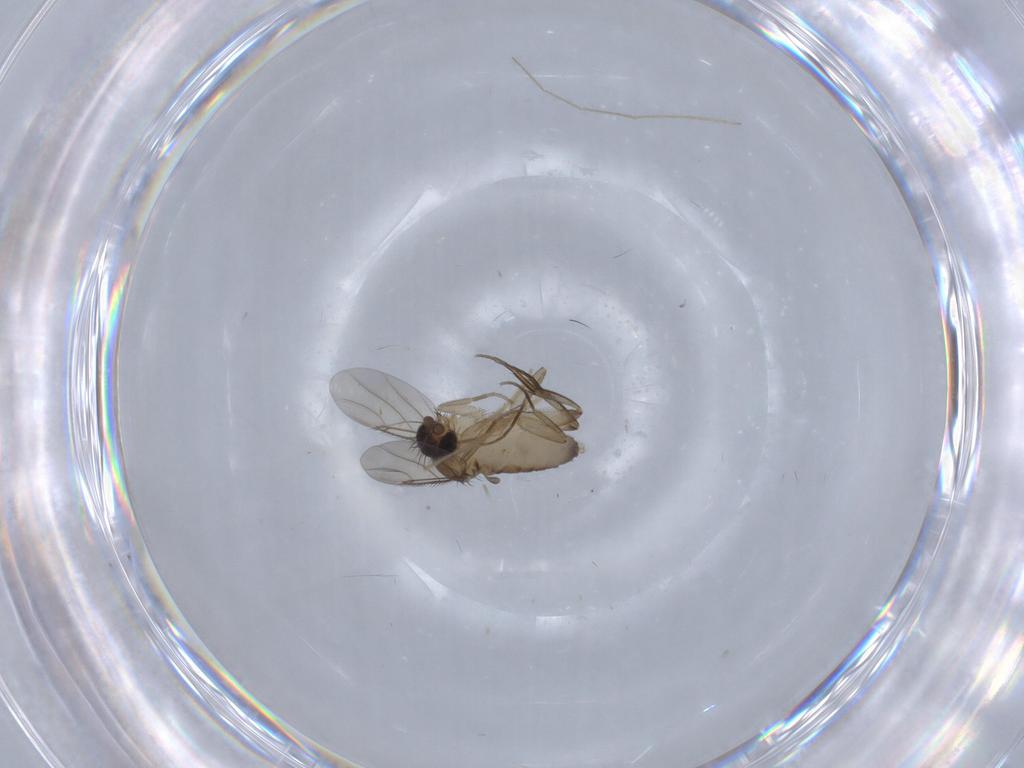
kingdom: Animalia
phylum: Arthropoda
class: Insecta
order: Diptera
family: Phoridae
